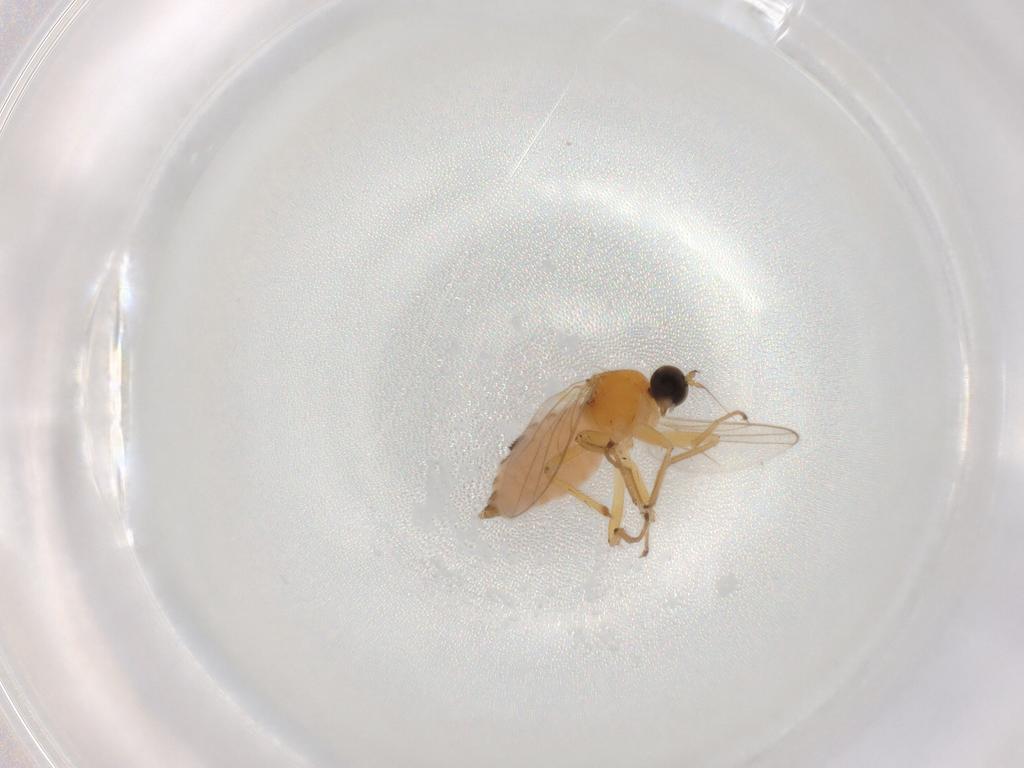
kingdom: Animalia
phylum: Arthropoda
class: Insecta
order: Diptera
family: Hybotidae
